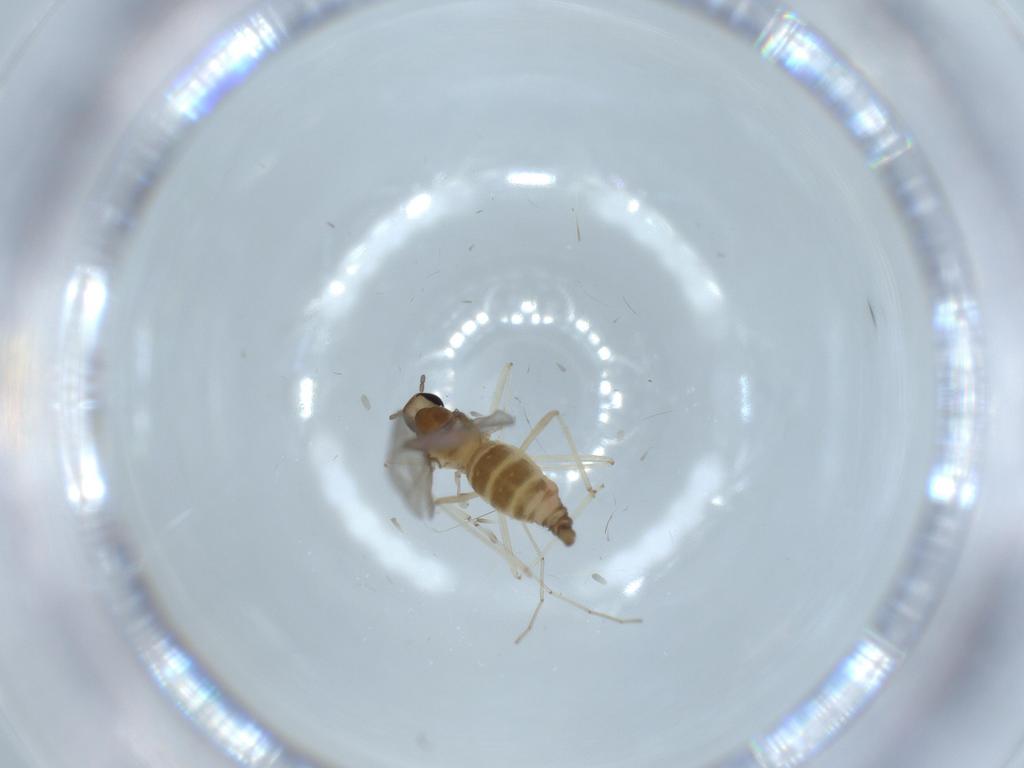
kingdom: Animalia
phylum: Arthropoda
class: Insecta
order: Diptera
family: Cecidomyiidae
